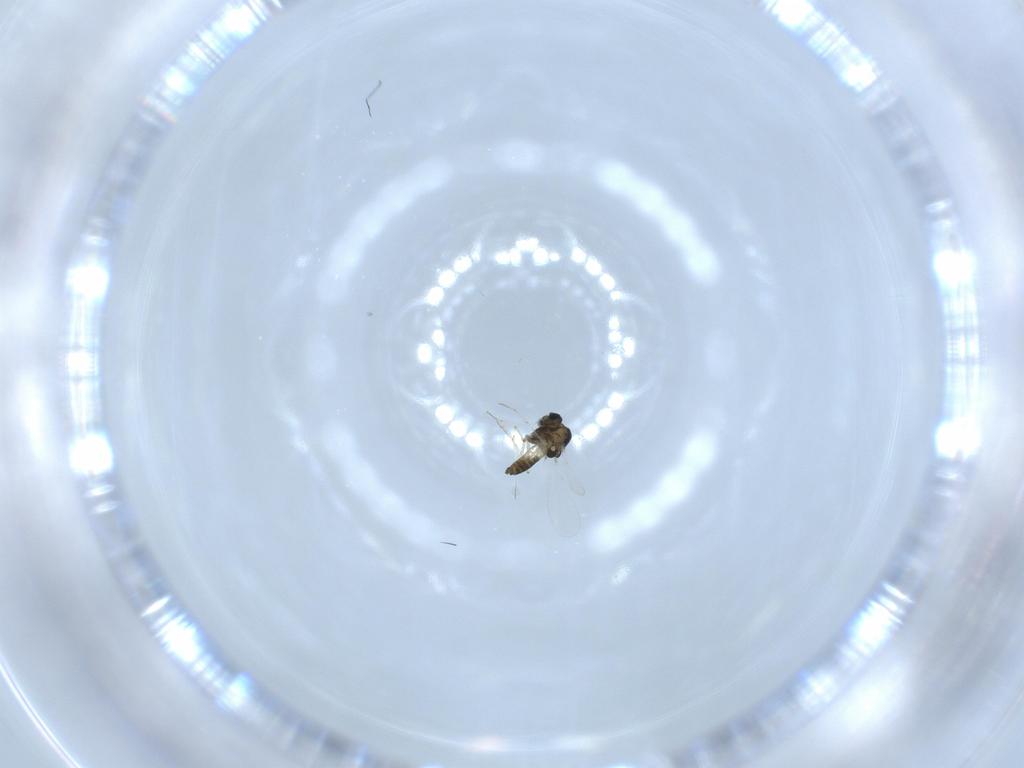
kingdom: Animalia
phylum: Arthropoda
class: Insecta
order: Diptera
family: Chironomidae
